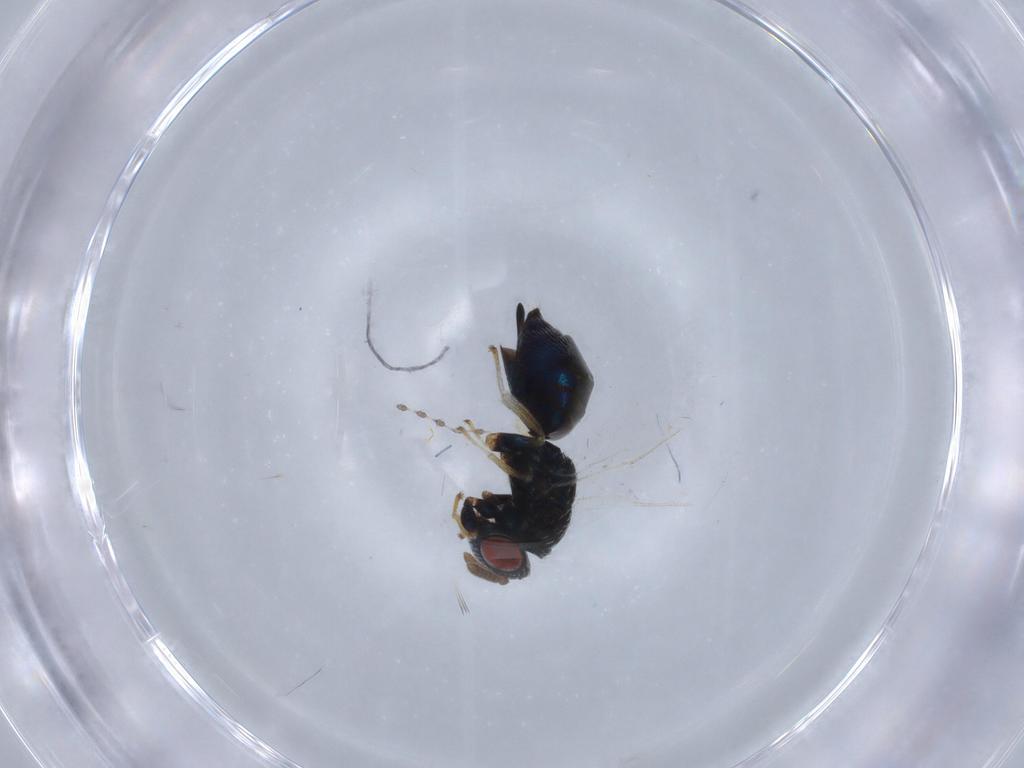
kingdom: Animalia
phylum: Arthropoda
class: Insecta
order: Hymenoptera
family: Pteromalidae
